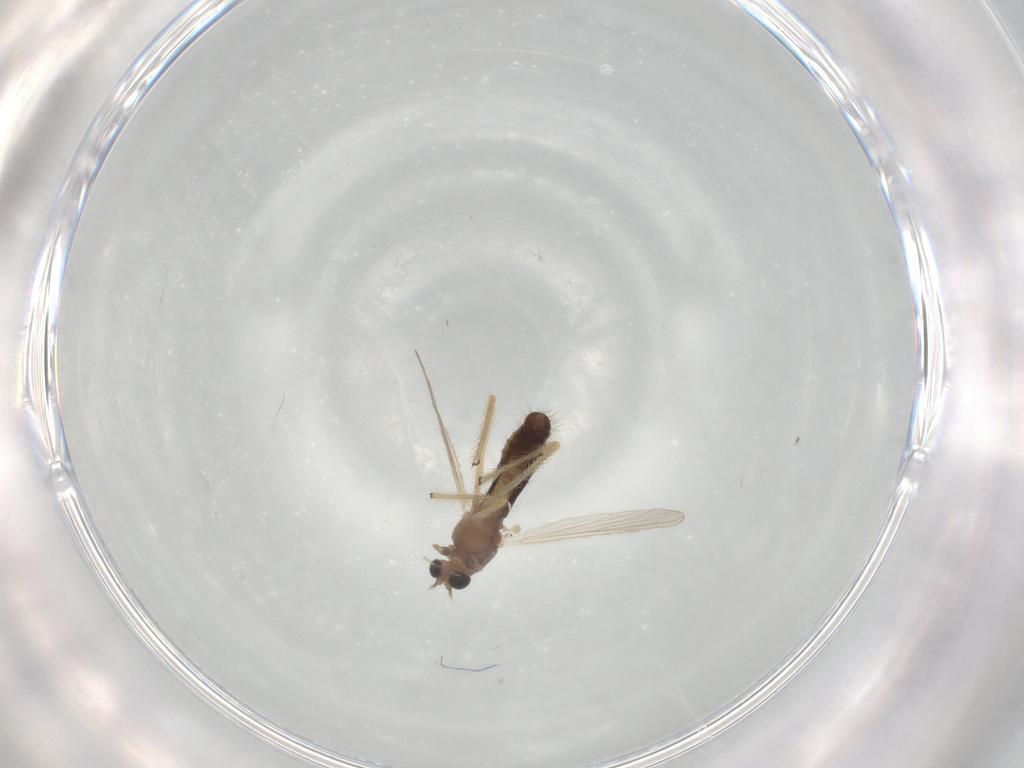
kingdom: Animalia
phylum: Arthropoda
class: Insecta
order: Diptera
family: Chironomidae
